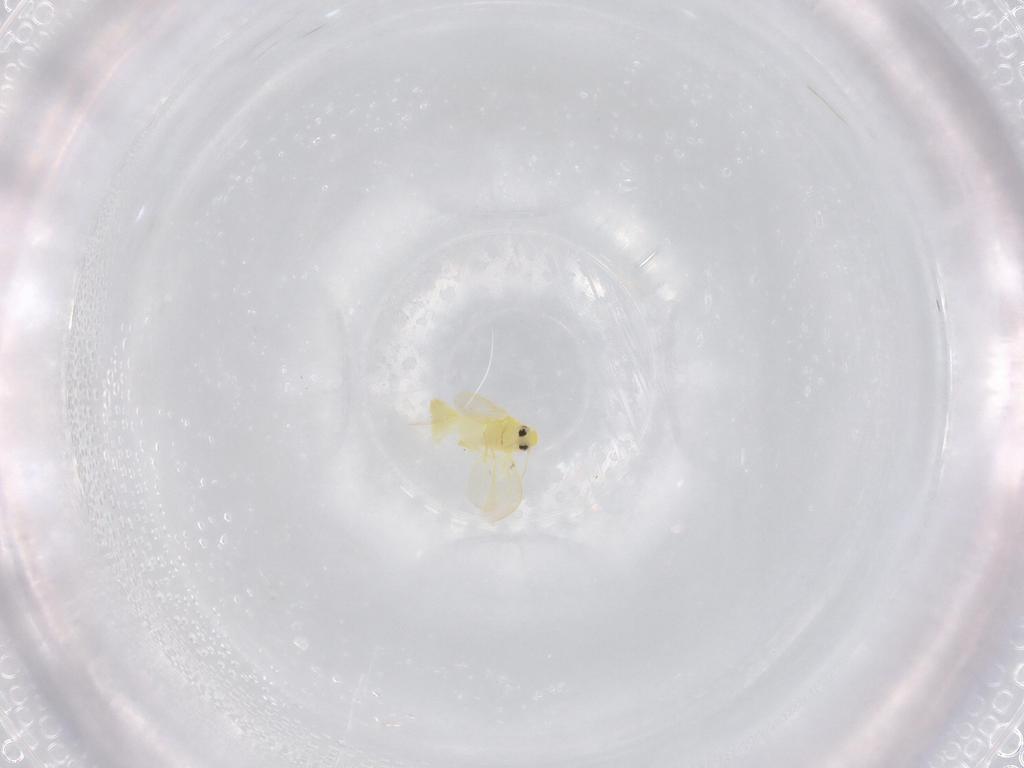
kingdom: Animalia
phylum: Arthropoda
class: Insecta
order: Hemiptera
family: Aleyrodidae
